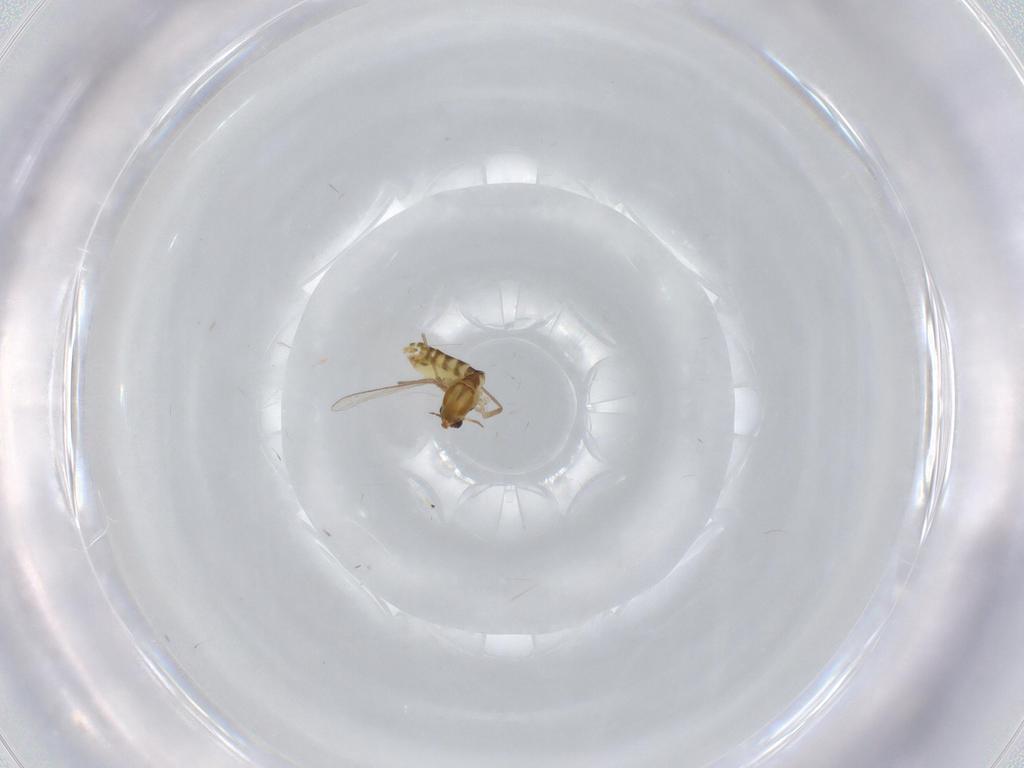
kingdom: Animalia
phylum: Arthropoda
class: Insecta
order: Diptera
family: Chironomidae
